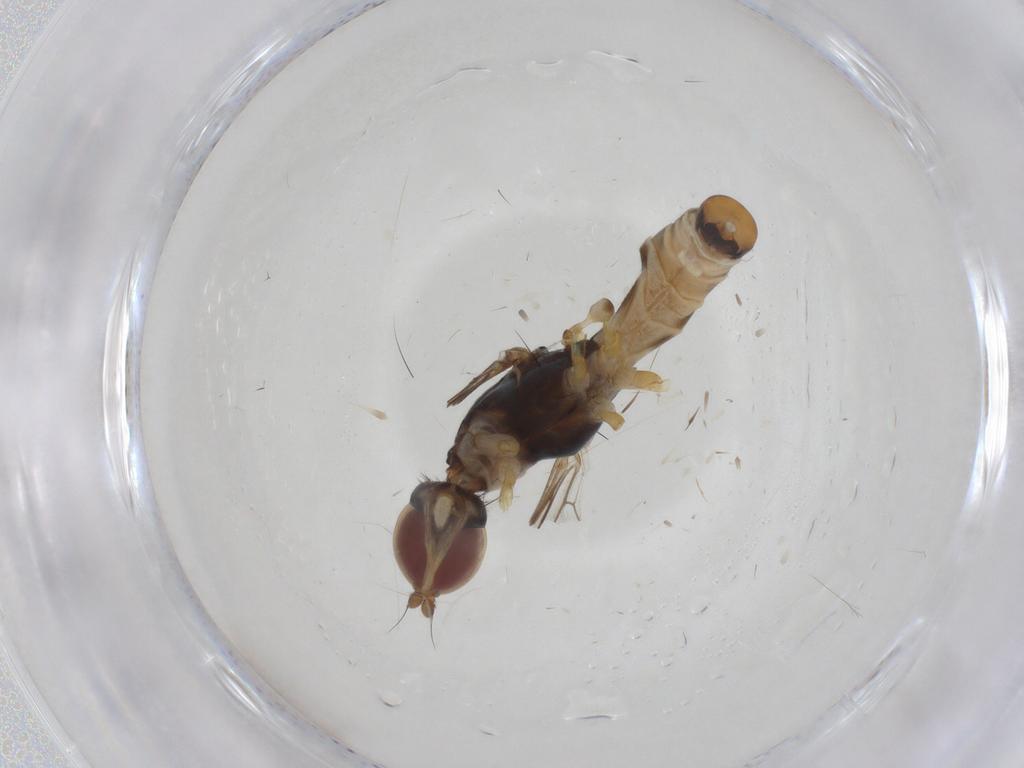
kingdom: Animalia
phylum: Arthropoda
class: Insecta
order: Diptera
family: Micropezidae
